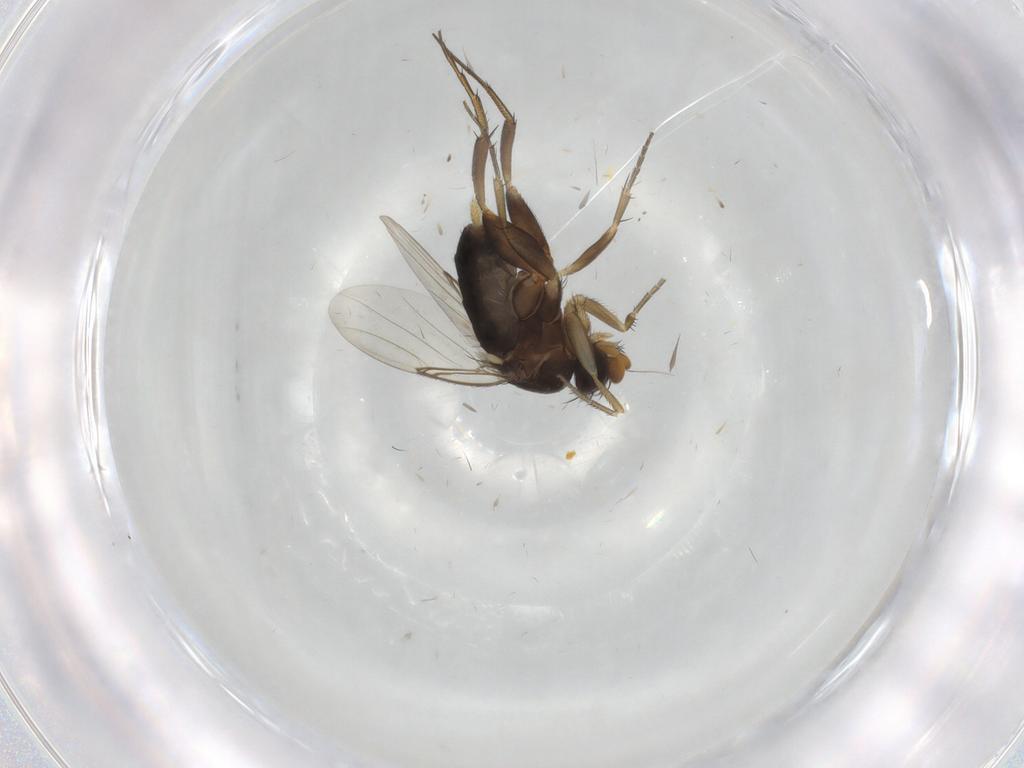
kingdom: Animalia
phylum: Arthropoda
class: Insecta
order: Diptera
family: Phoridae
